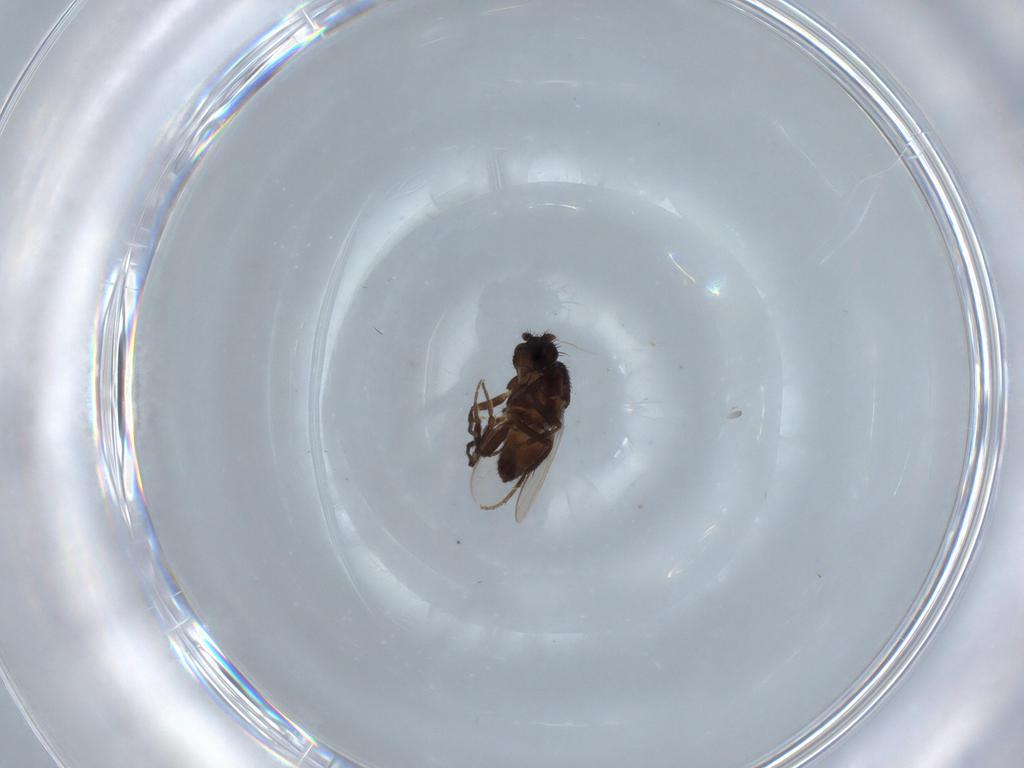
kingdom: Animalia
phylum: Arthropoda
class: Insecta
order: Diptera
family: Sphaeroceridae
